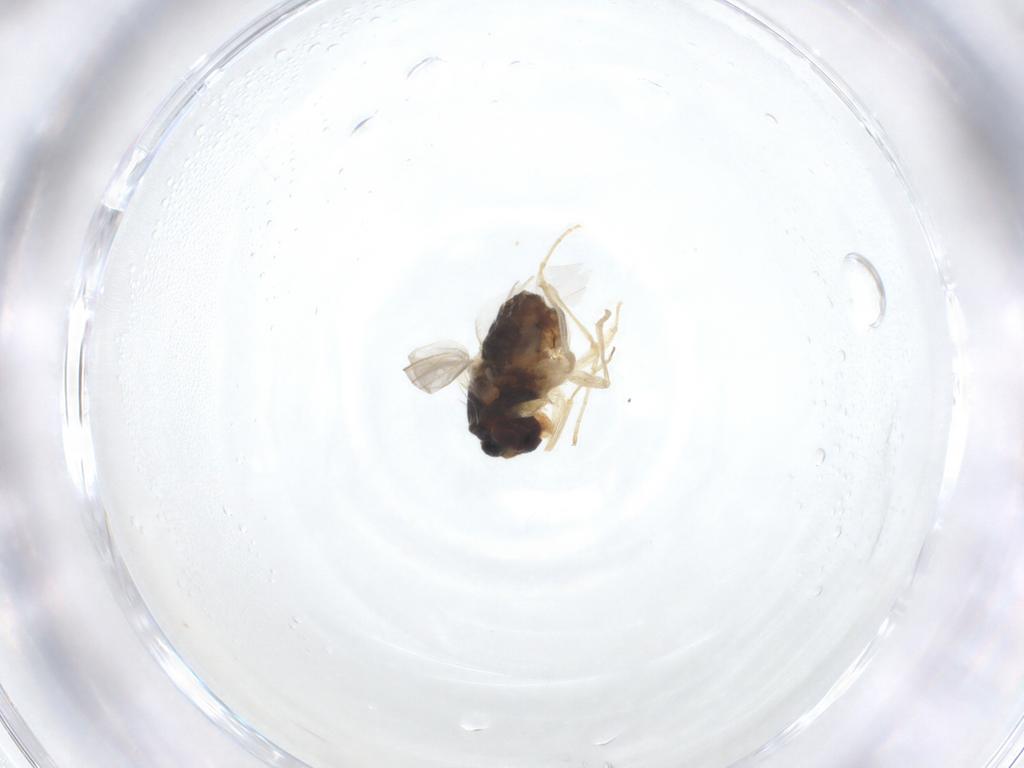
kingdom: Animalia
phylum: Arthropoda
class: Insecta
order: Diptera
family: Dolichopodidae
